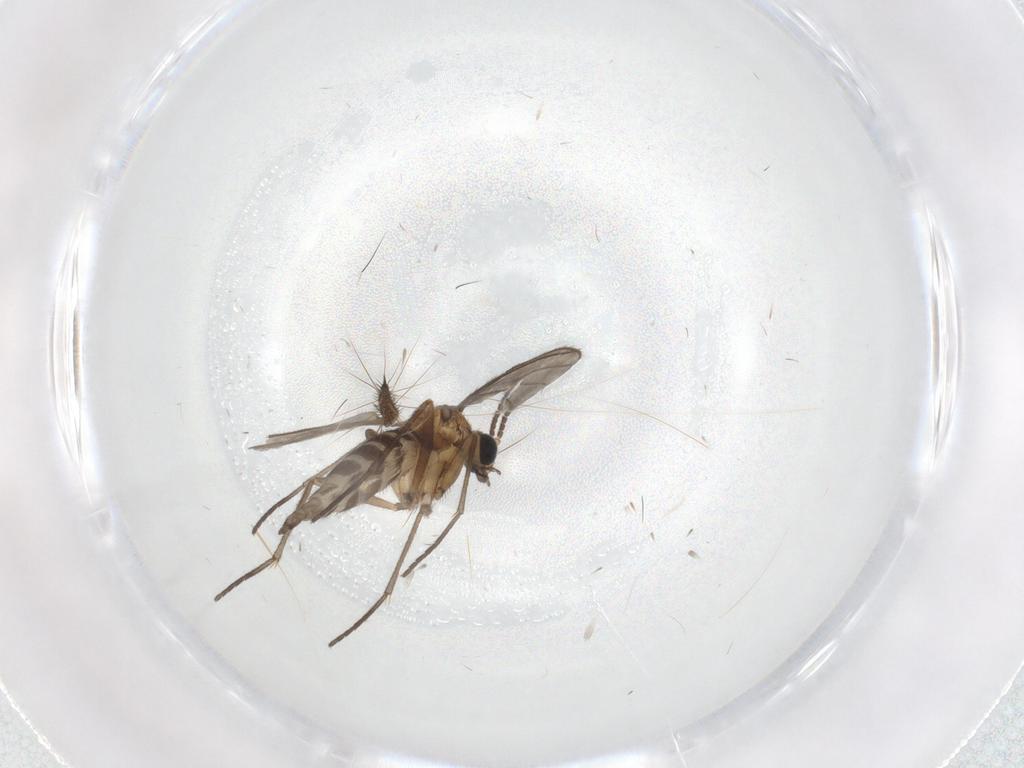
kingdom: Animalia
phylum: Arthropoda
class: Insecta
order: Diptera
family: Sciaridae
